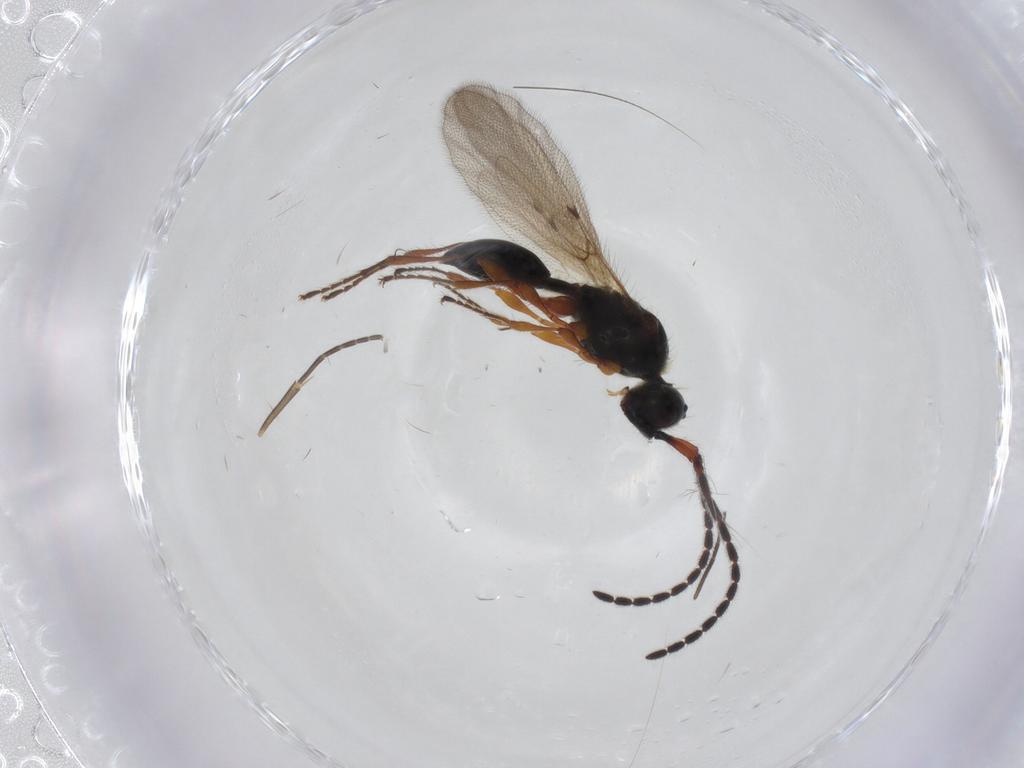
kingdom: Animalia
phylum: Arthropoda
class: Insecta
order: Hymenoptera
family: Diapriidae
